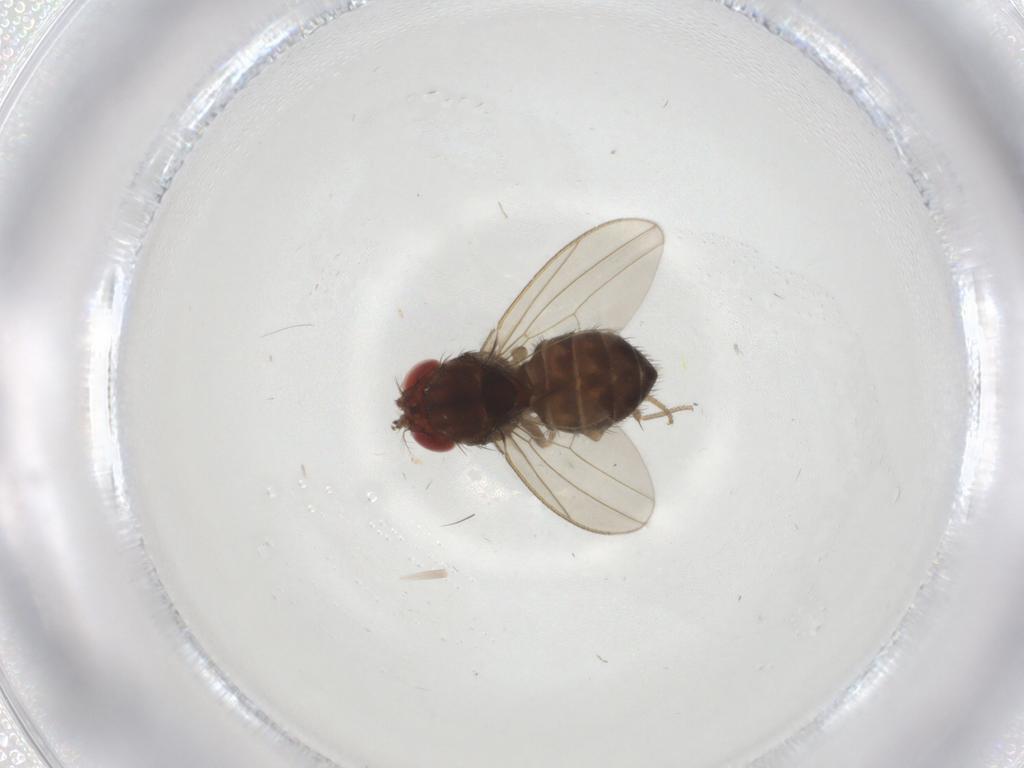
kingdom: Animalia
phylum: Arthropoda
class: Insecta
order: Diptera
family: Drosophilidae
